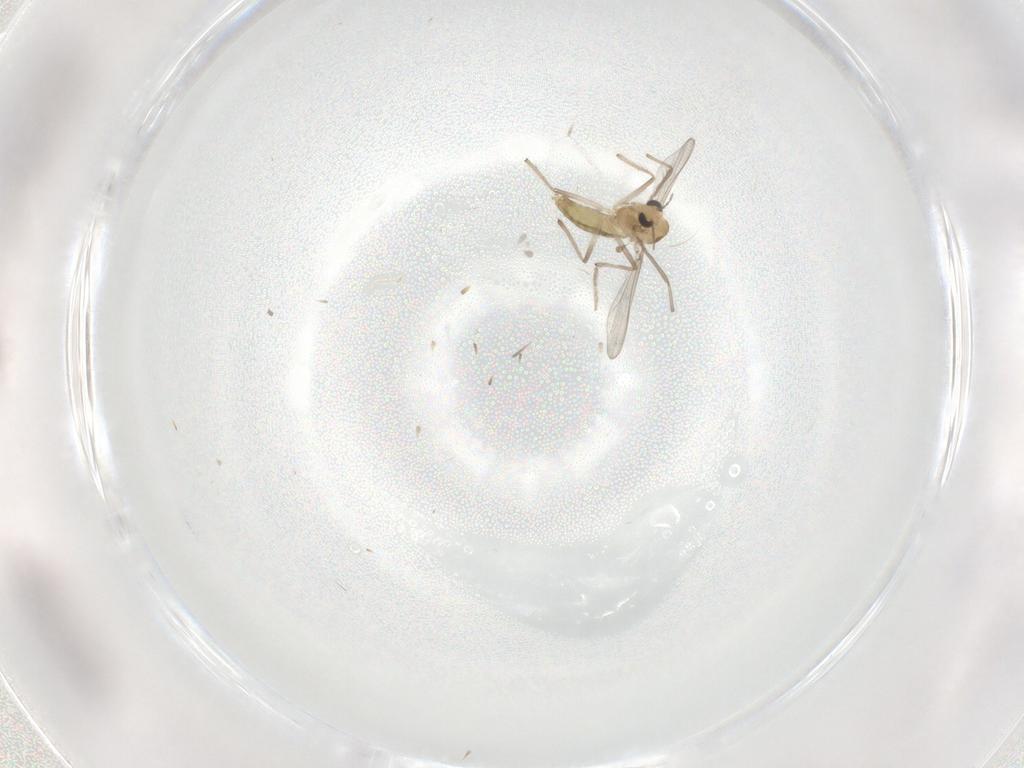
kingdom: Animalia
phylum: Arthropoda
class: Insecta
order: Diptera
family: Chironomidae
